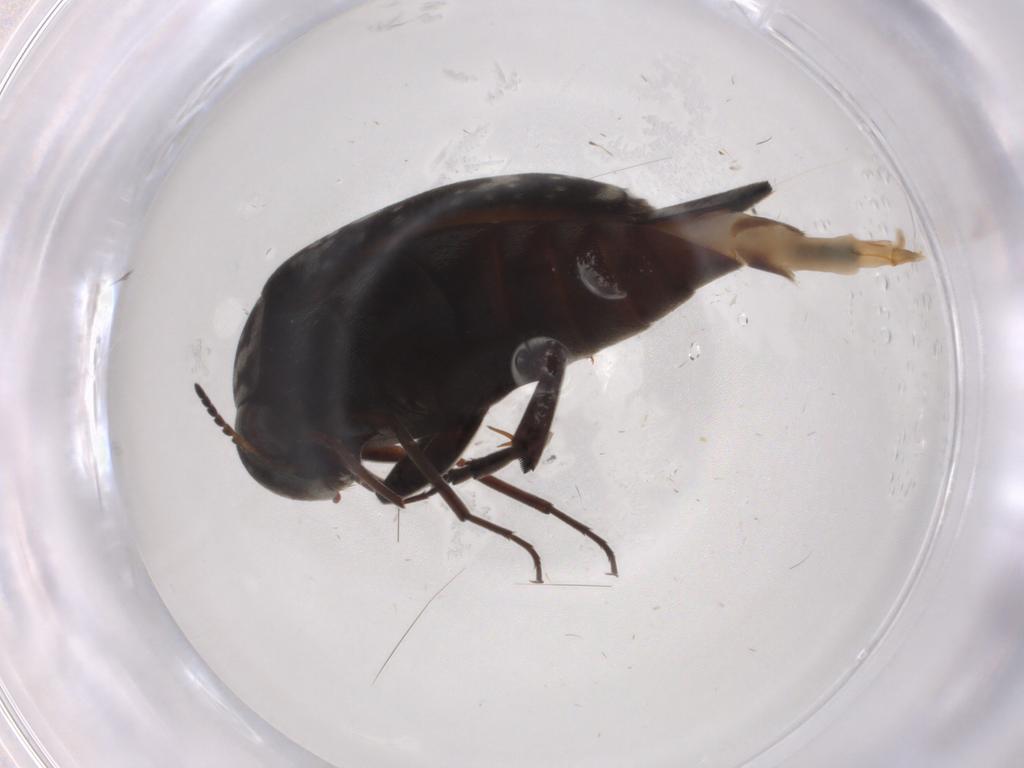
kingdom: Animalia
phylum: Arthropoda
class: Insecta
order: Coleoptera
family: Mordellidae
